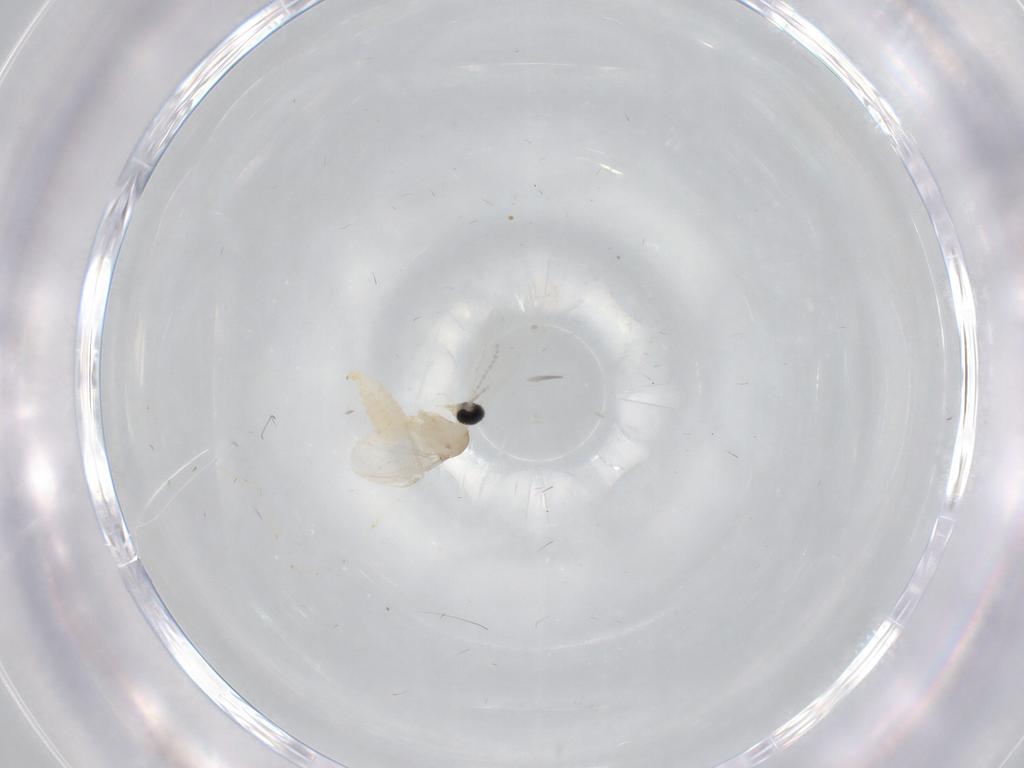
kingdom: Animalia
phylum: Arthropoda
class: Insecta
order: Diptera
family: Cecidomyiidae
